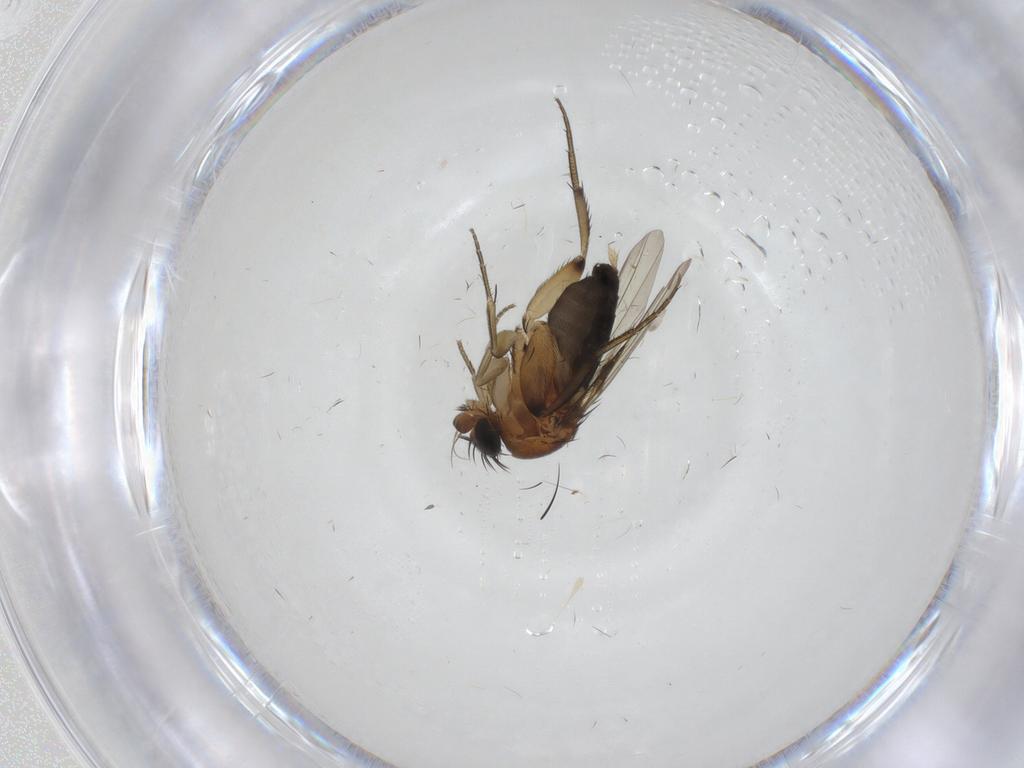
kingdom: Animalia
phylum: Arthropoda
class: Insecta
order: Diptera
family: Phoridae
